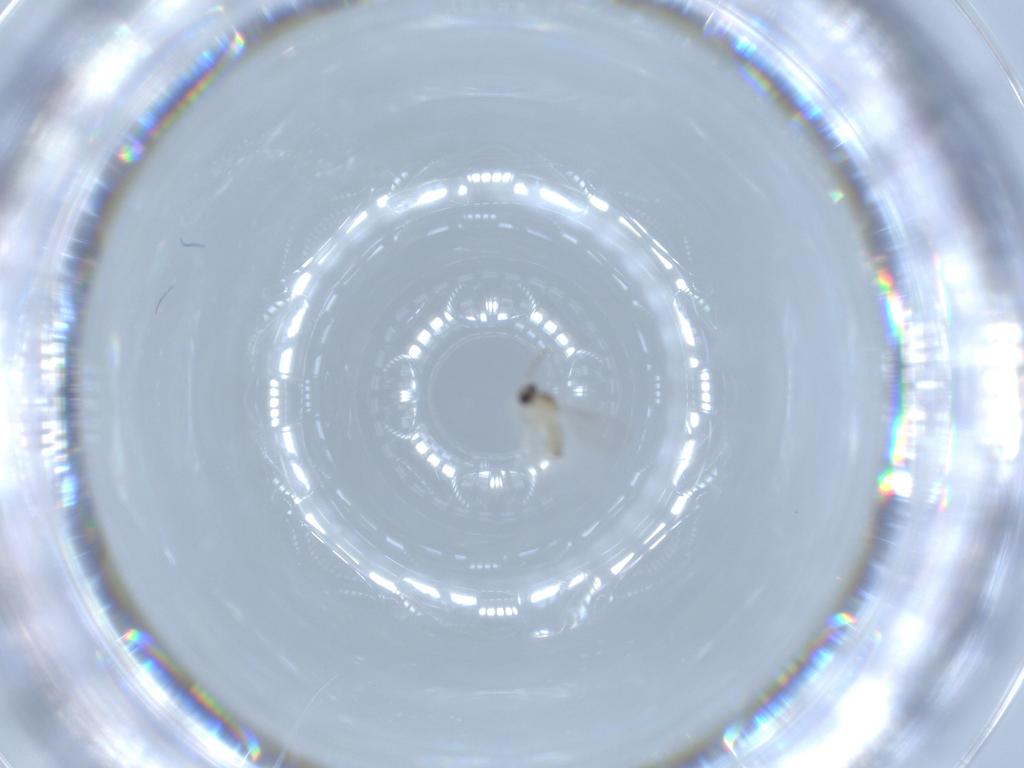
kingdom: Animalia
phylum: Arthropoda
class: Insecta
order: Diptera
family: Cecidomyiidae
